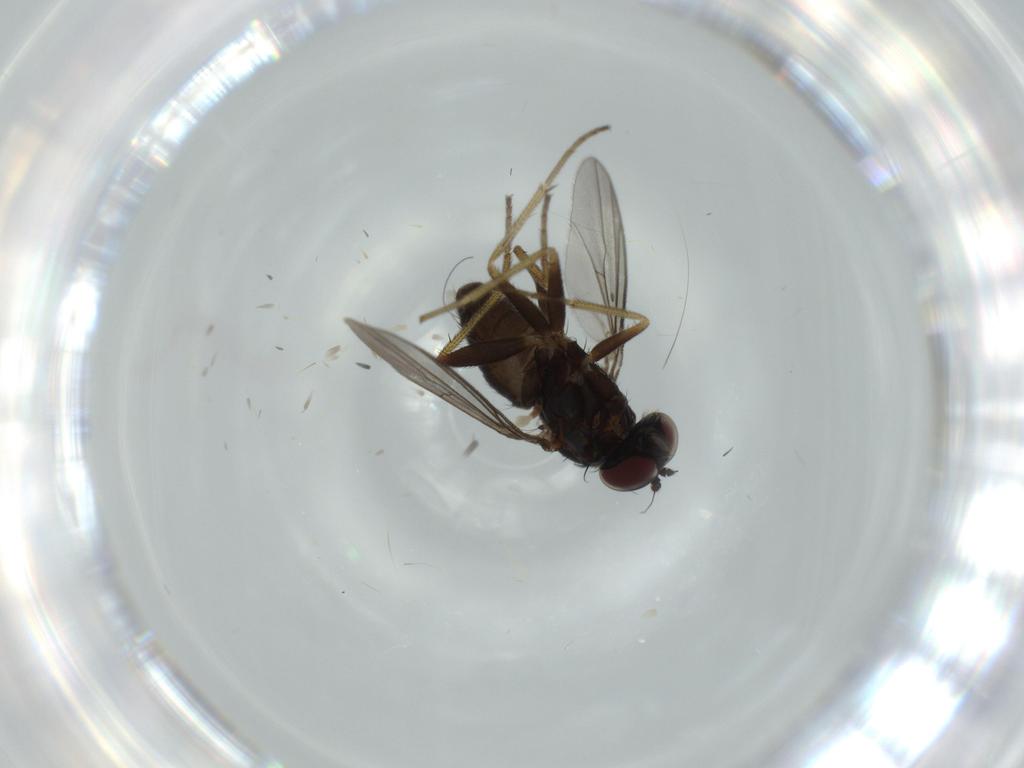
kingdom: Animalia
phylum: Arthropoda
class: Insecta
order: Diptera
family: Dolichopodidae
